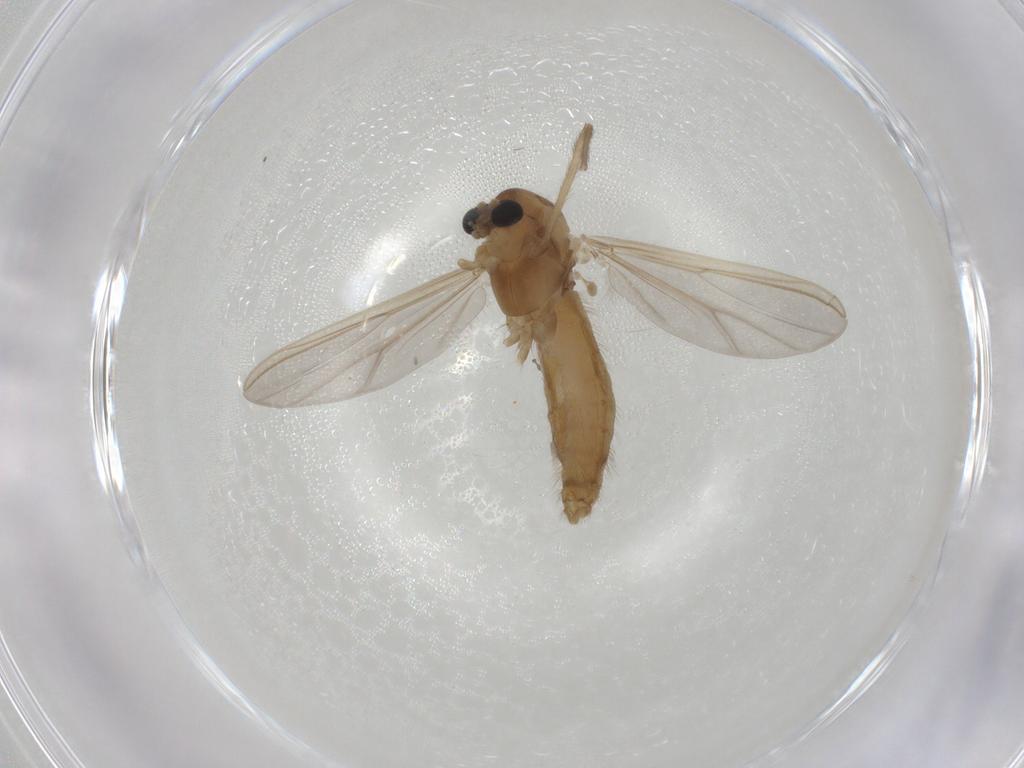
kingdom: Animalia
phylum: Arthropoda
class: Insecta
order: Diptera
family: Chironomidae
